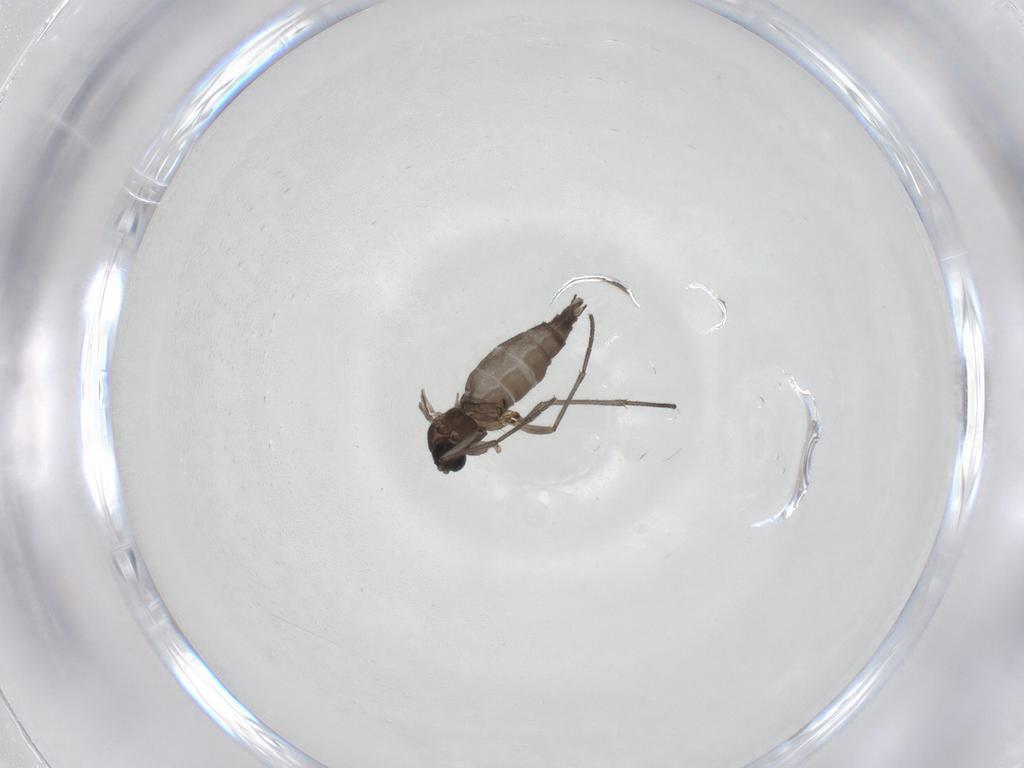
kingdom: Animalia
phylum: Arthropoda
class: Insecta
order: Diptera
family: Sciaridae
